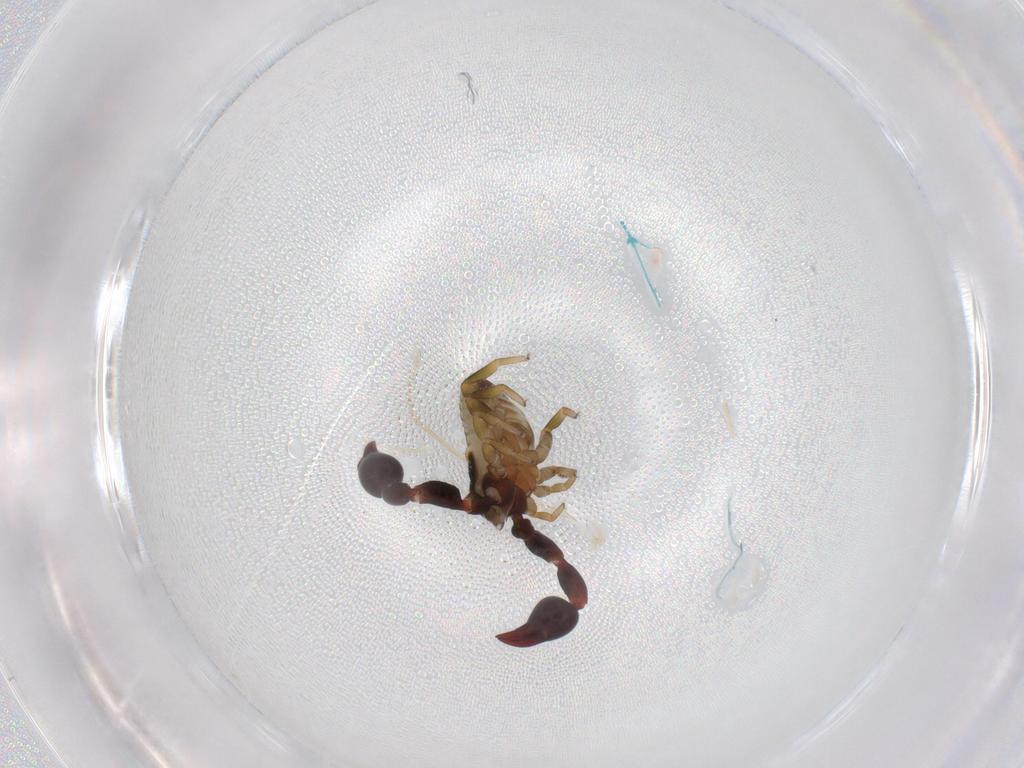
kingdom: Animalia
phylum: Arthropoda
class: Arachnida
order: Pseudoscorpiones
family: Chernetidae
